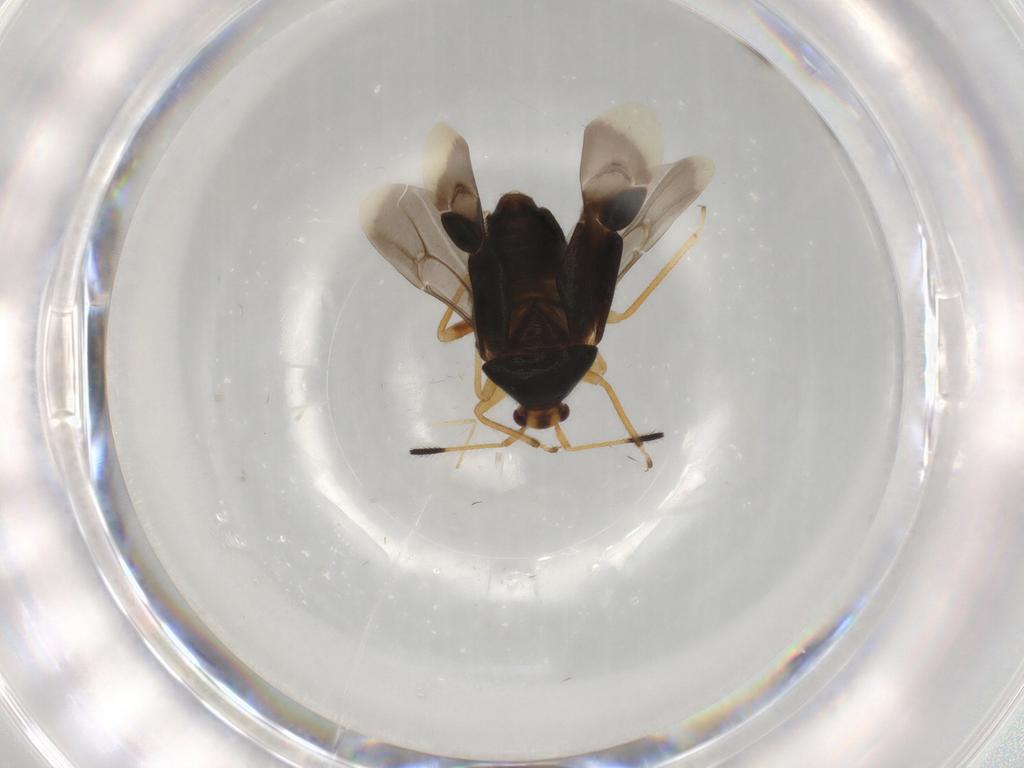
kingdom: Animalia
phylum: Arthropoda
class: Insecta
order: Hemiptera
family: Miridae
